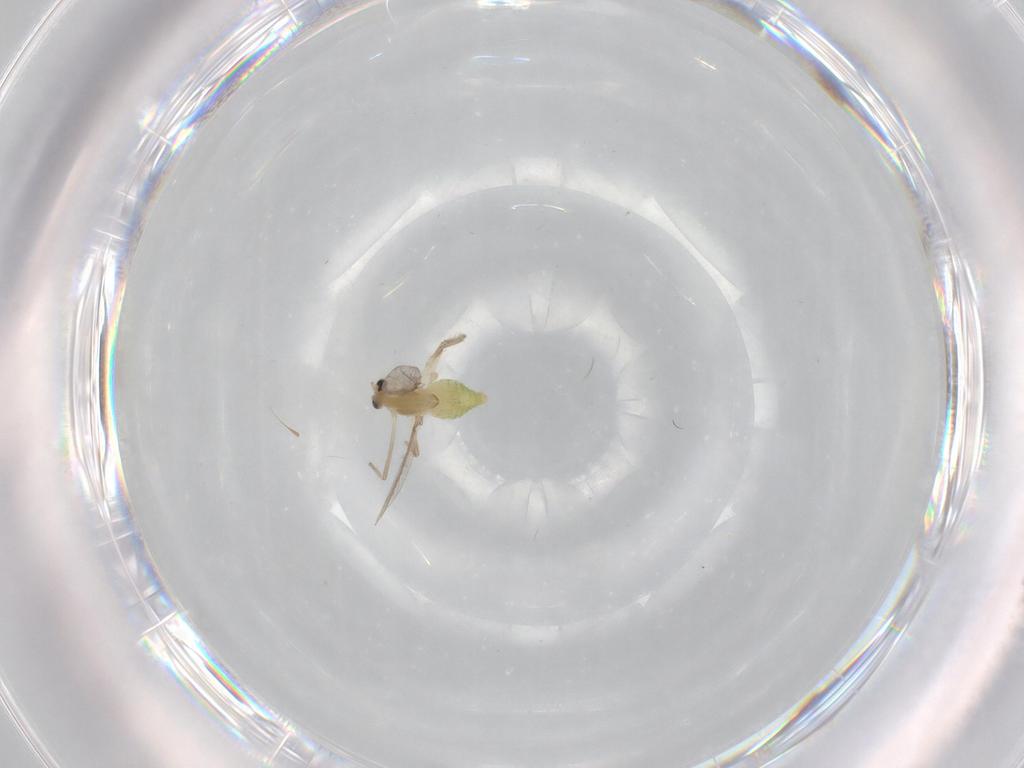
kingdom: Animalia
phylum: Arthropoda
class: Insecta
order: Diptera
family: Chironomidae
